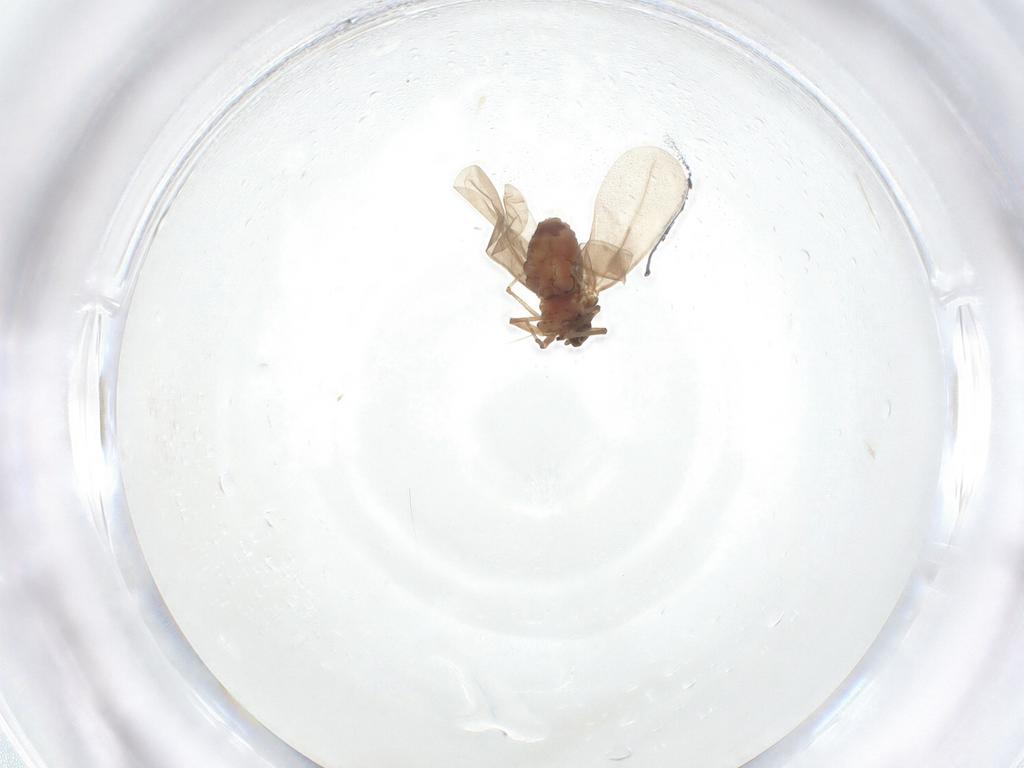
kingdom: Animalia
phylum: Arthropoda
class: Insecta
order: Hemiptera
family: Aleyrodidae
